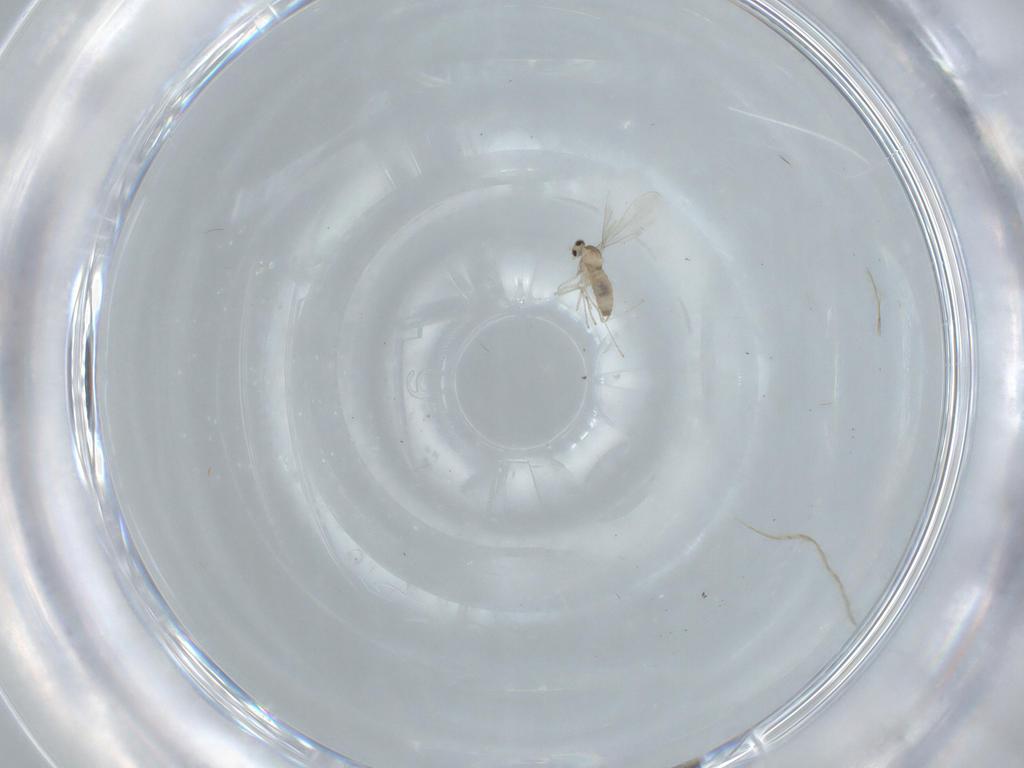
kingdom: Animalia
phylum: Arthropoda
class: Insecta
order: Diptera
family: Cecidomyiidae
